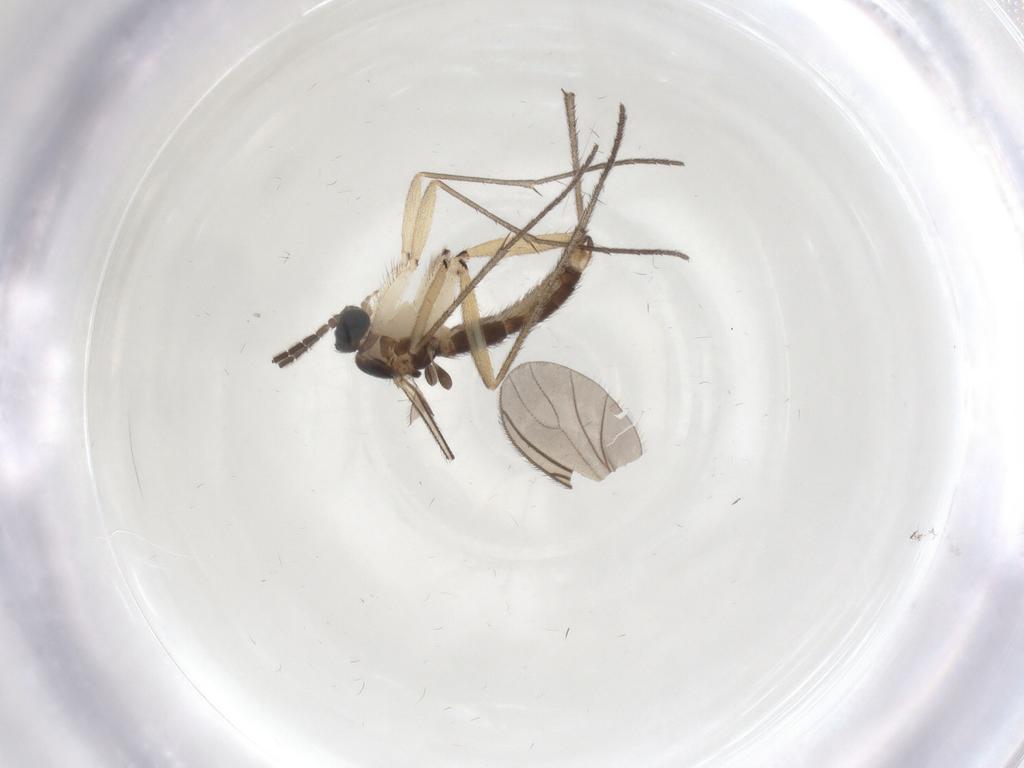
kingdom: Animalia
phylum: Arthropoda
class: Insecta
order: Diptera
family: Sciaridae
